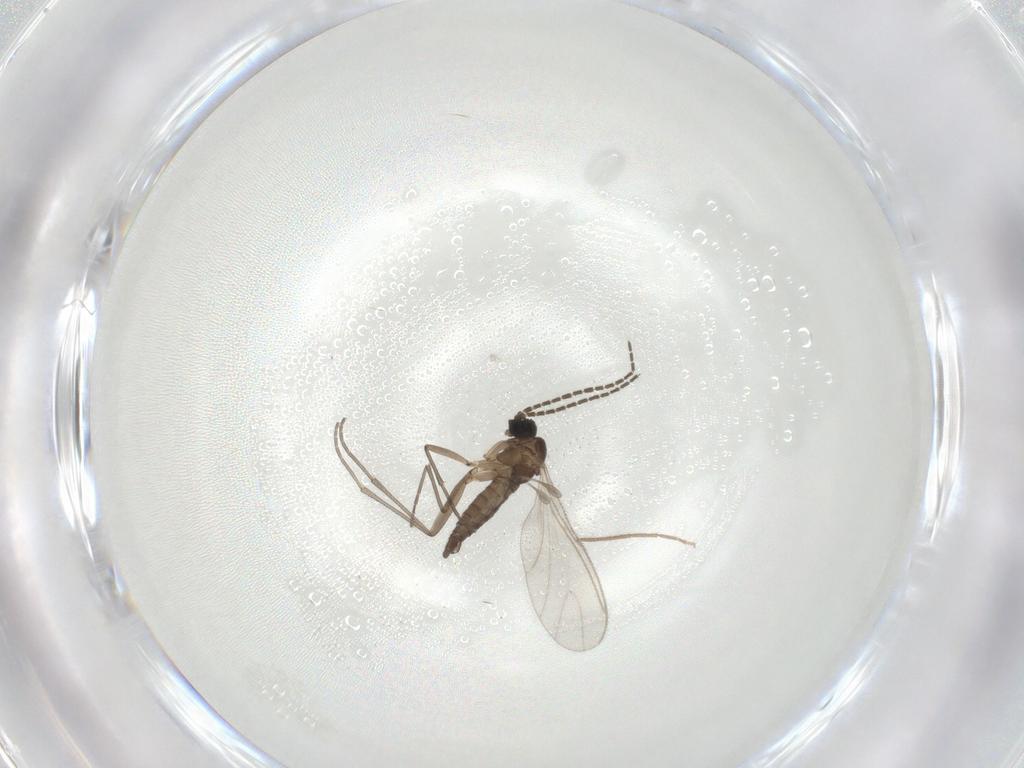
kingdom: Animalia
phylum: Arthropoda
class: Insecta
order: Diptera
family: Sciaridae
